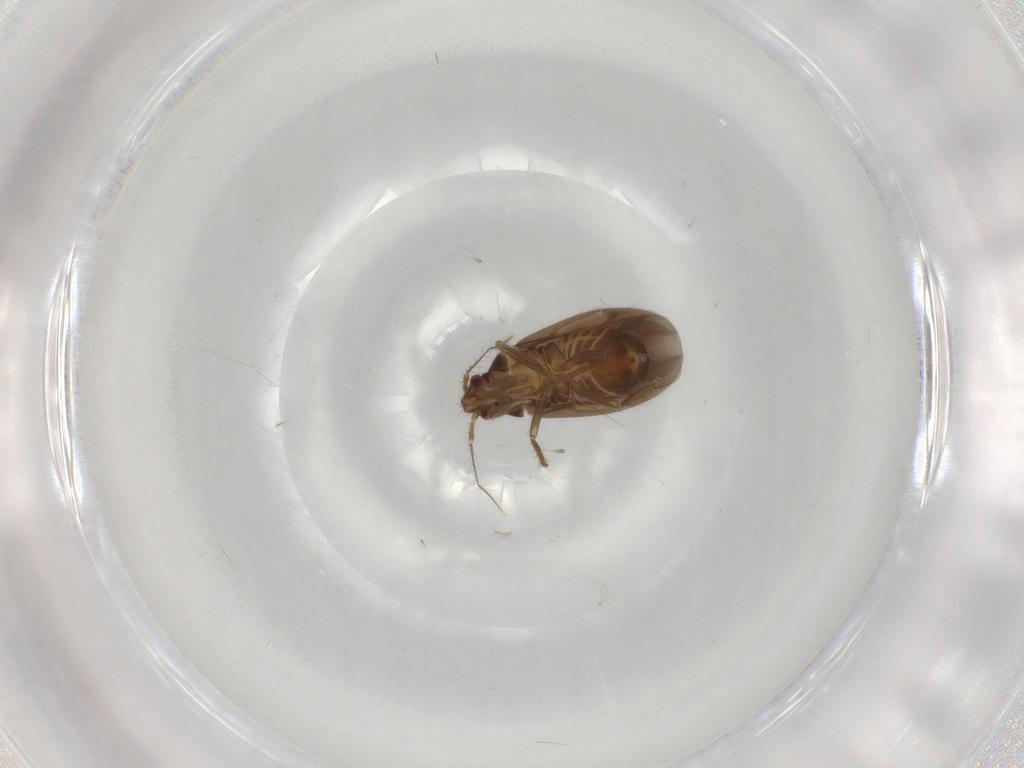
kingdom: Animalia
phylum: Arthropoda
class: Insecta
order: Hemiptera
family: Ceratocombidae
